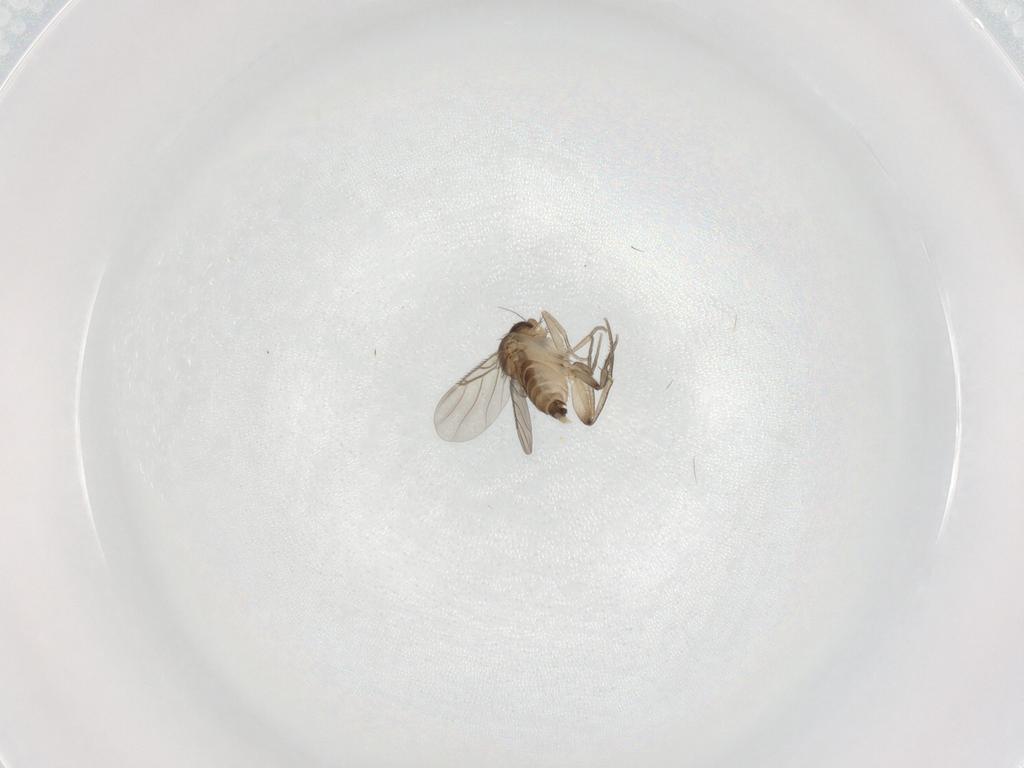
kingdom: Animalia
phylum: Arthropoda
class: Insecta
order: Diptera
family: Phoridae
